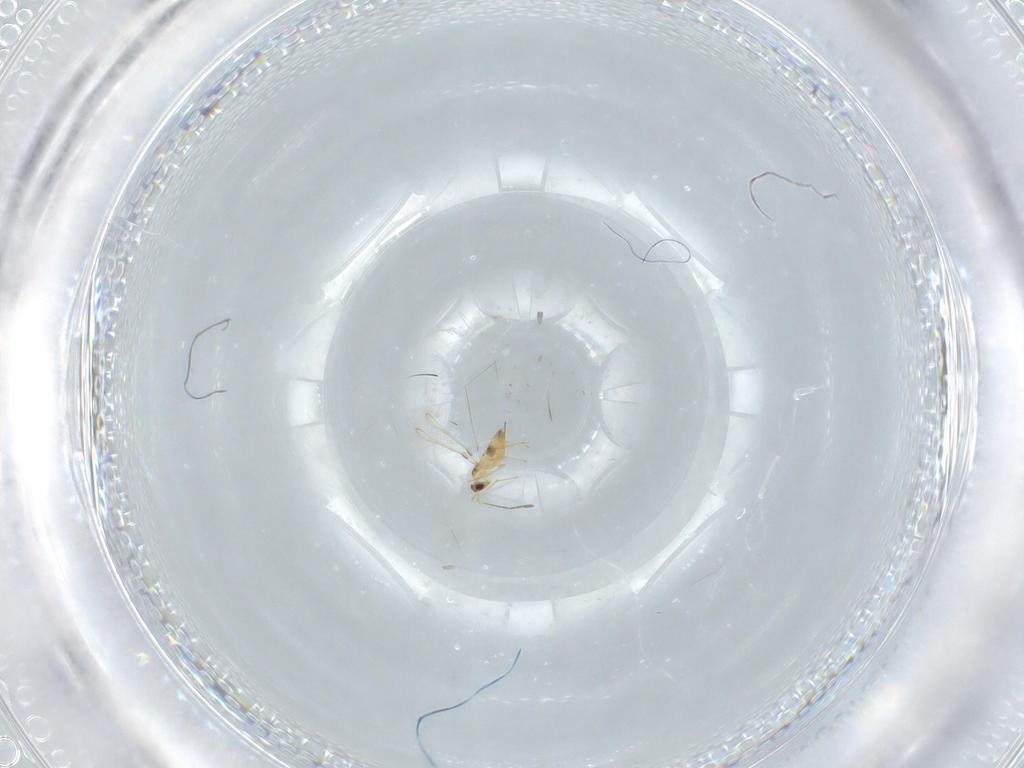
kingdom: Animalia
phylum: Arthropoda
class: Insecta
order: Hymenoptera
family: Mymaridae
